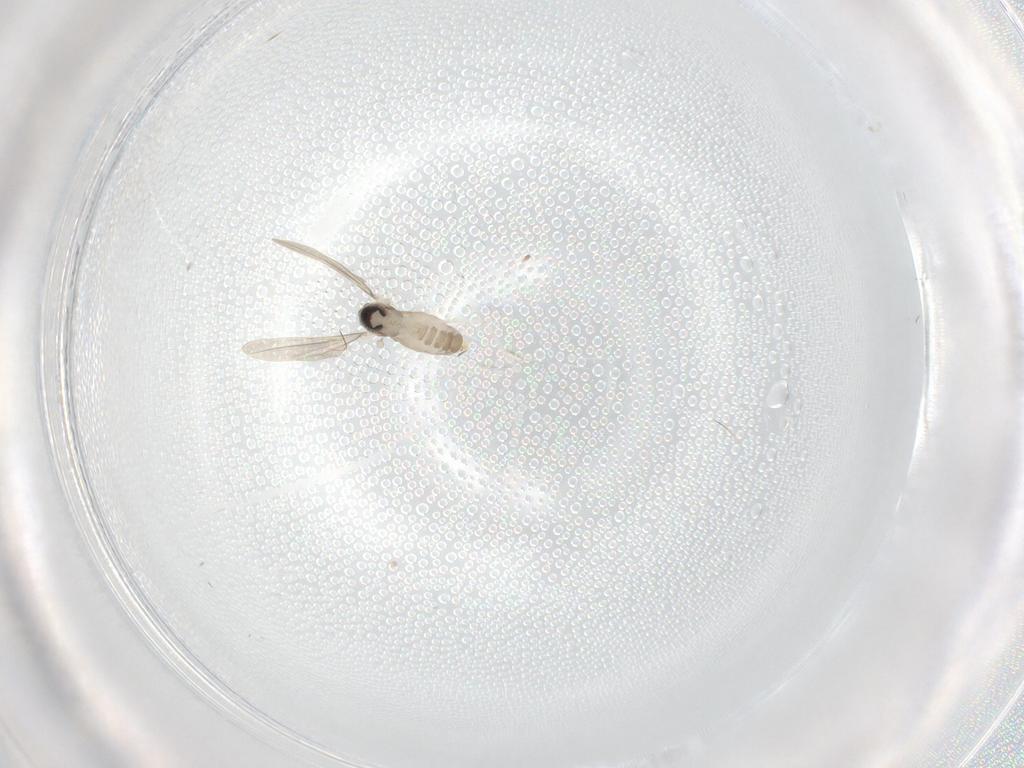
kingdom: Animalia
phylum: Arthropoda
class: Insecta
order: Diptera
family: Cecidomyiidae
